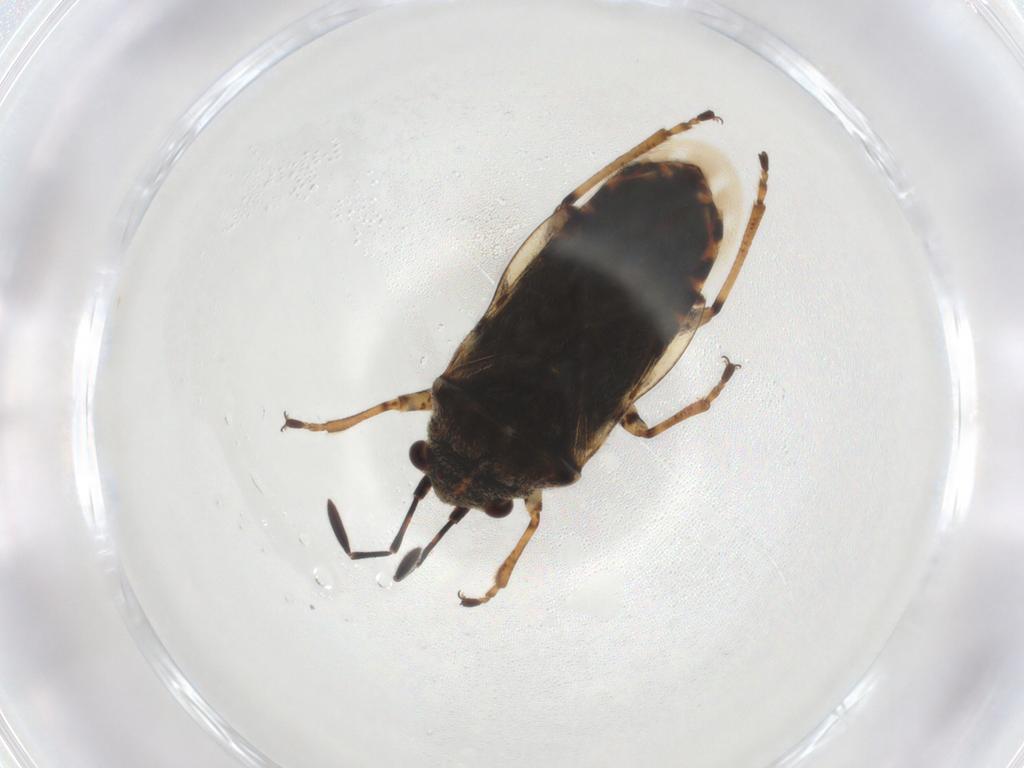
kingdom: Animalia
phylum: Arthropoda
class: Insecta
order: Hemiptera
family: Lygaeidae
